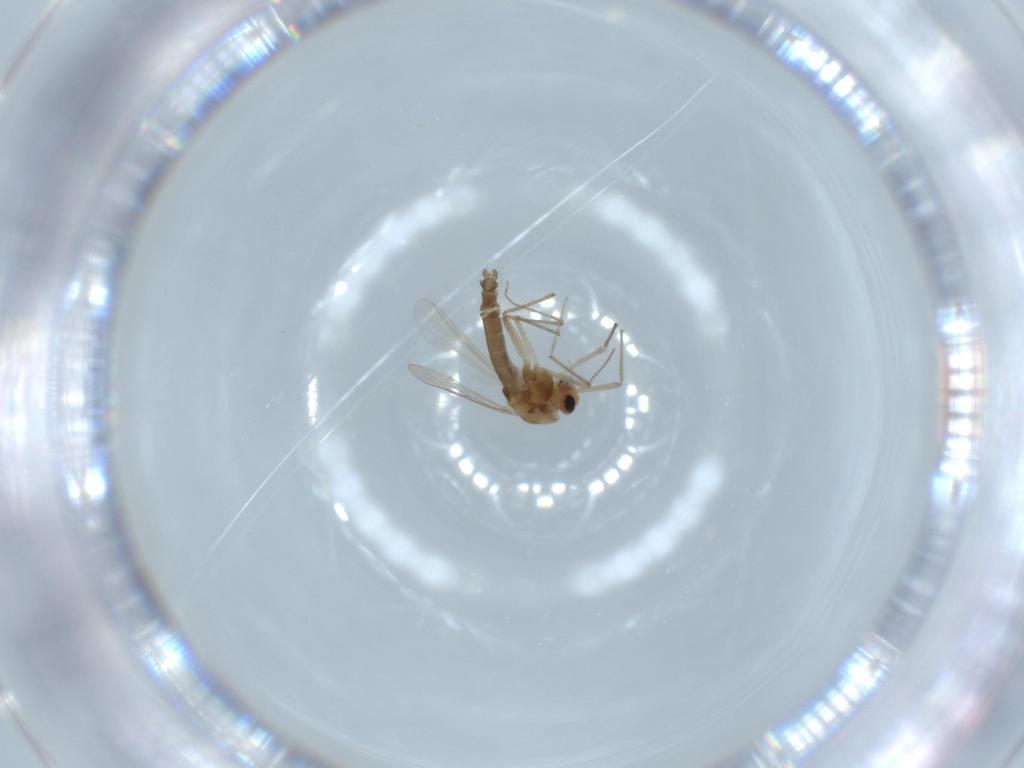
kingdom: Animalia
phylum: Arthropoda
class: Insecta
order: Diptera
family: Chironomidae
